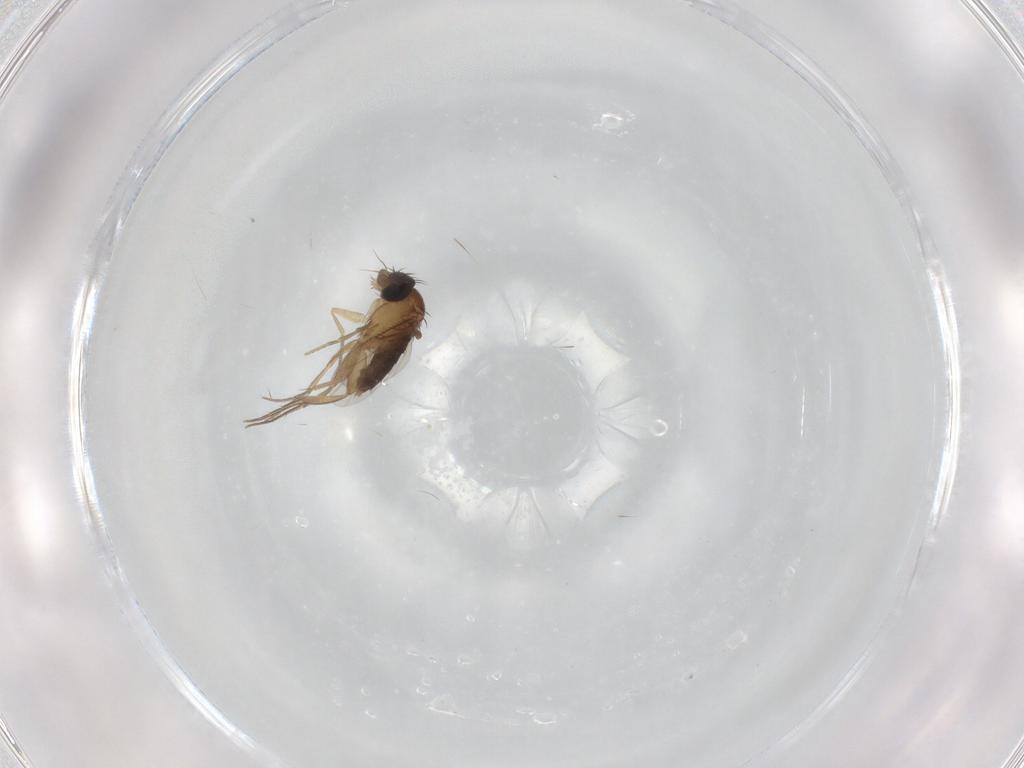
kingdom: Animalia
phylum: Arthropoda
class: Insecta
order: Diptera
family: Phoridae
